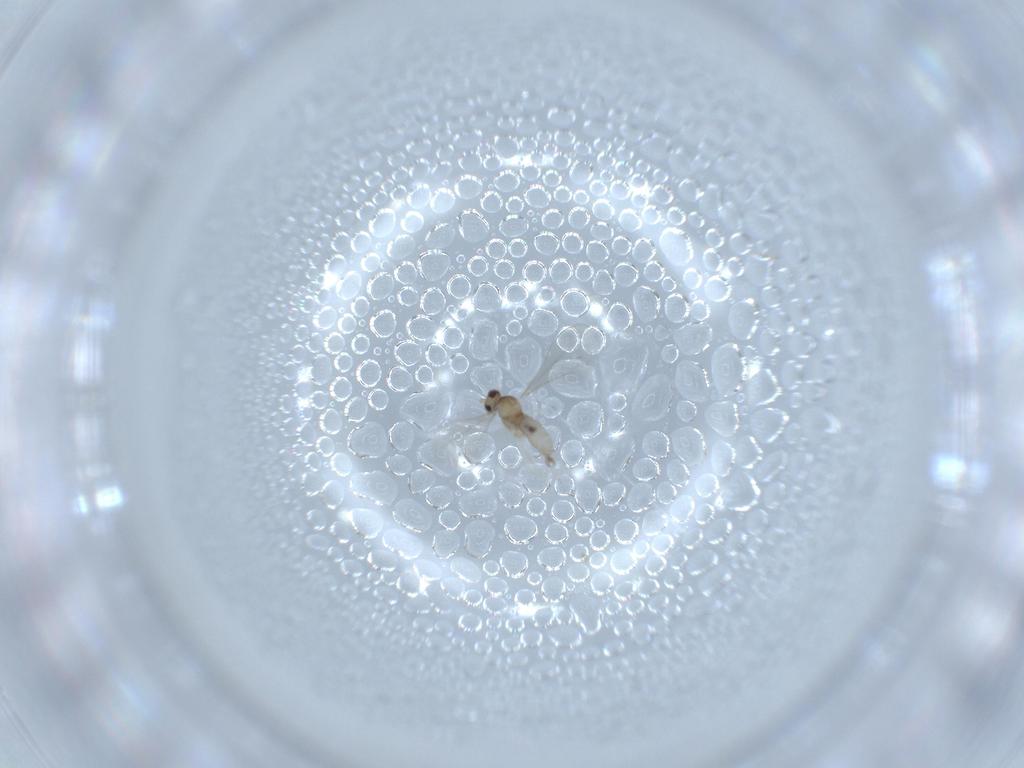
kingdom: Animalia
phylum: Arthropoda
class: Insecta
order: Diptera
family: Cecidomyiidae
